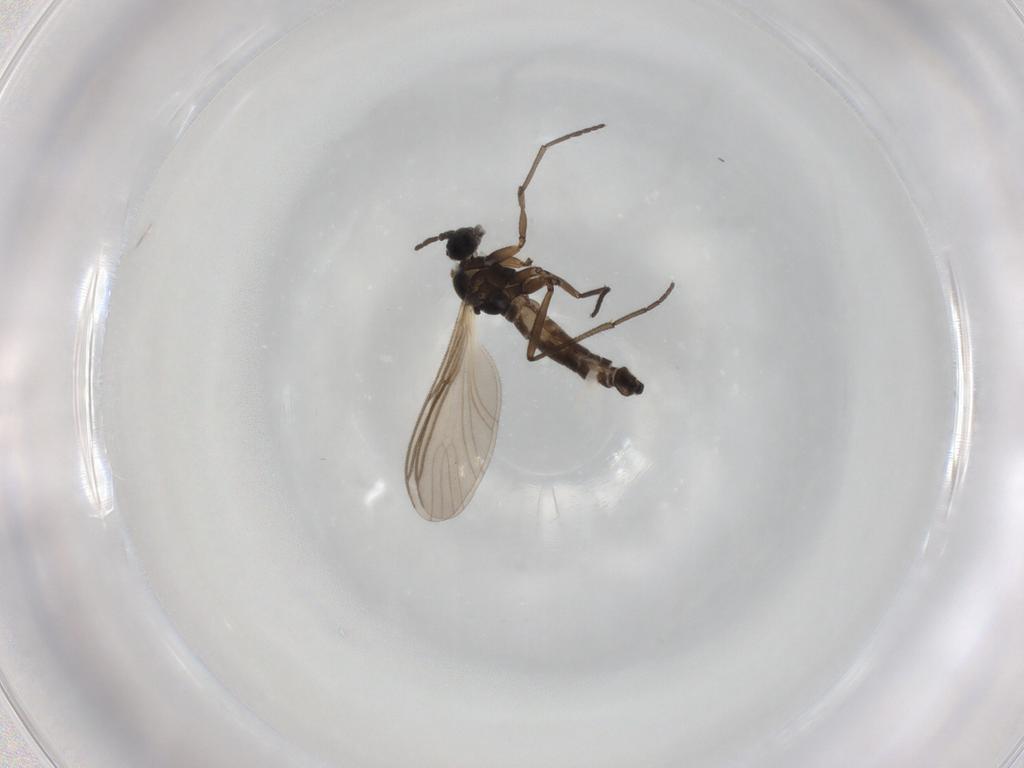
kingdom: Animalia
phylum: Arthropoda
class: Insecta
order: Diptera
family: Sciaridae
